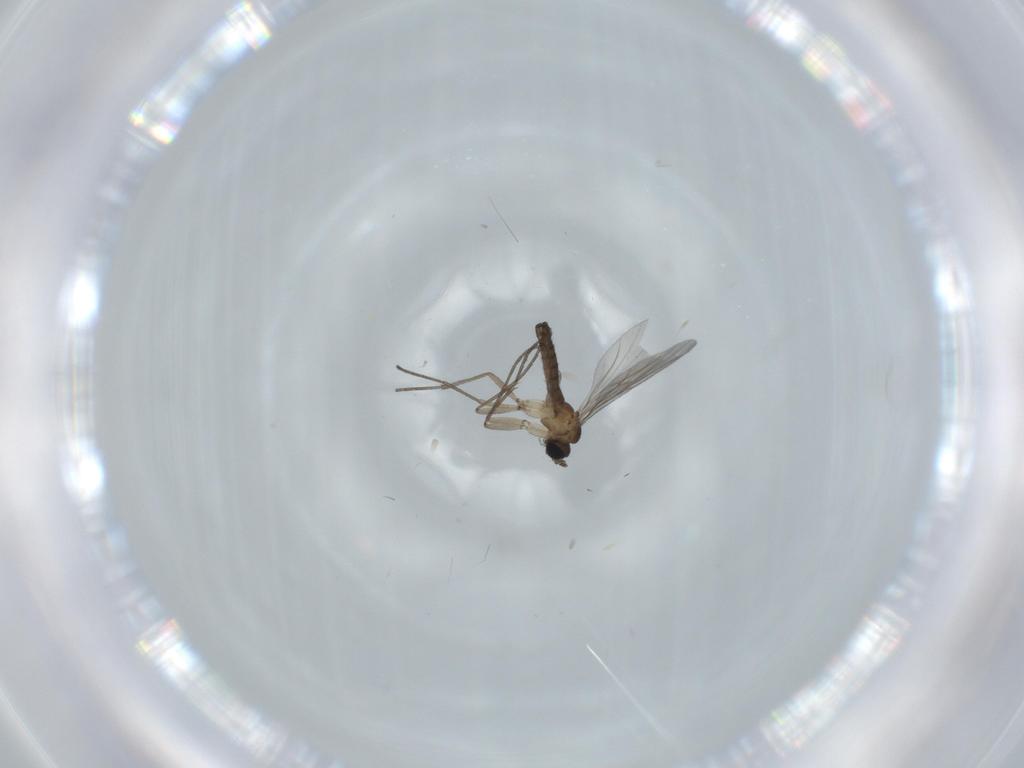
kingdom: Animalia
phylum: Arthropoda
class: Insecta
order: Diptera
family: Sciaridae
